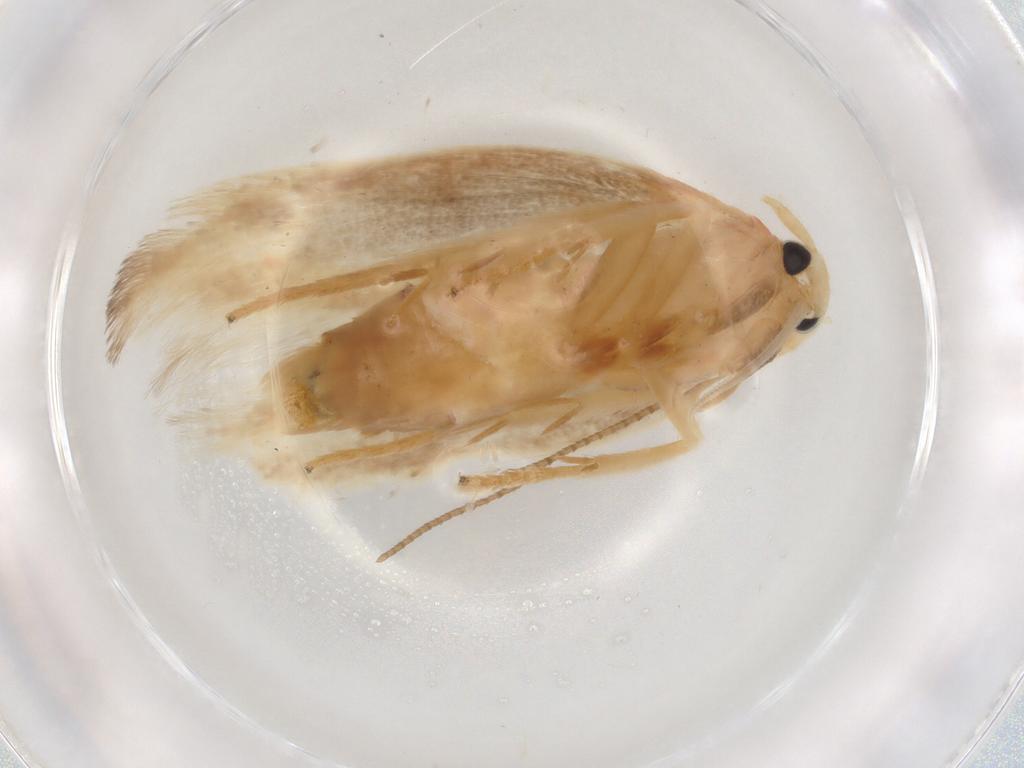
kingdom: Animalia
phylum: Arthropoda
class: Insecta
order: Lepidoptera
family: Geometridae
